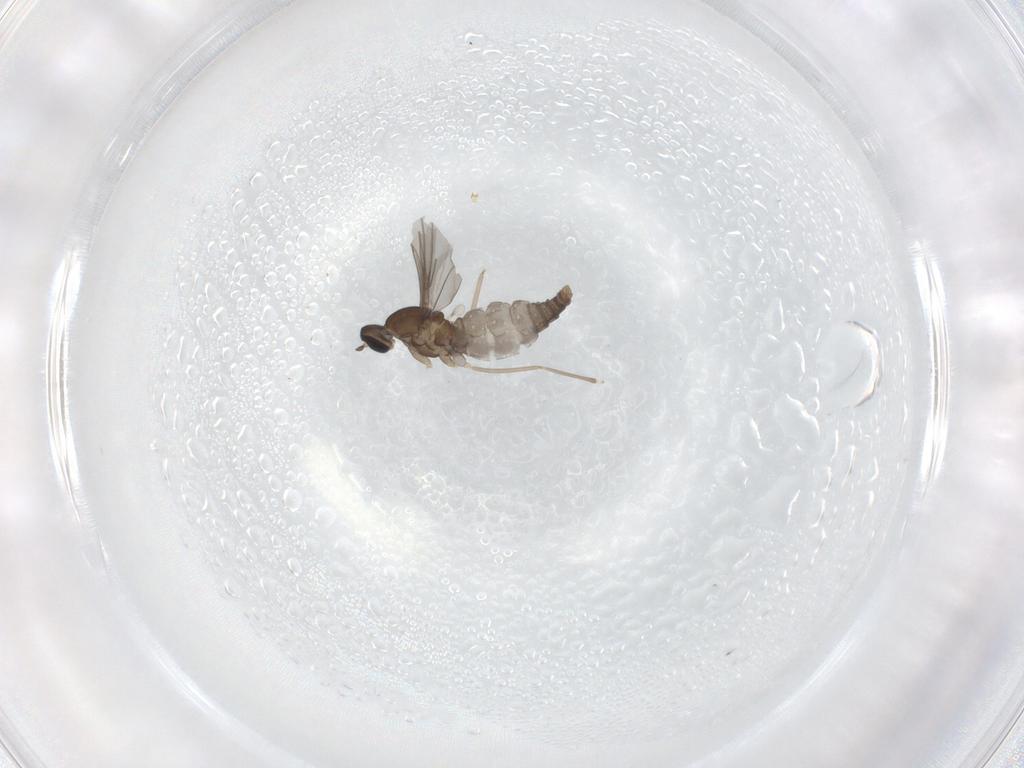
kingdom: Animalia
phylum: Arthropoda
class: Insecta
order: Diptera
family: Cecidomyiidae
